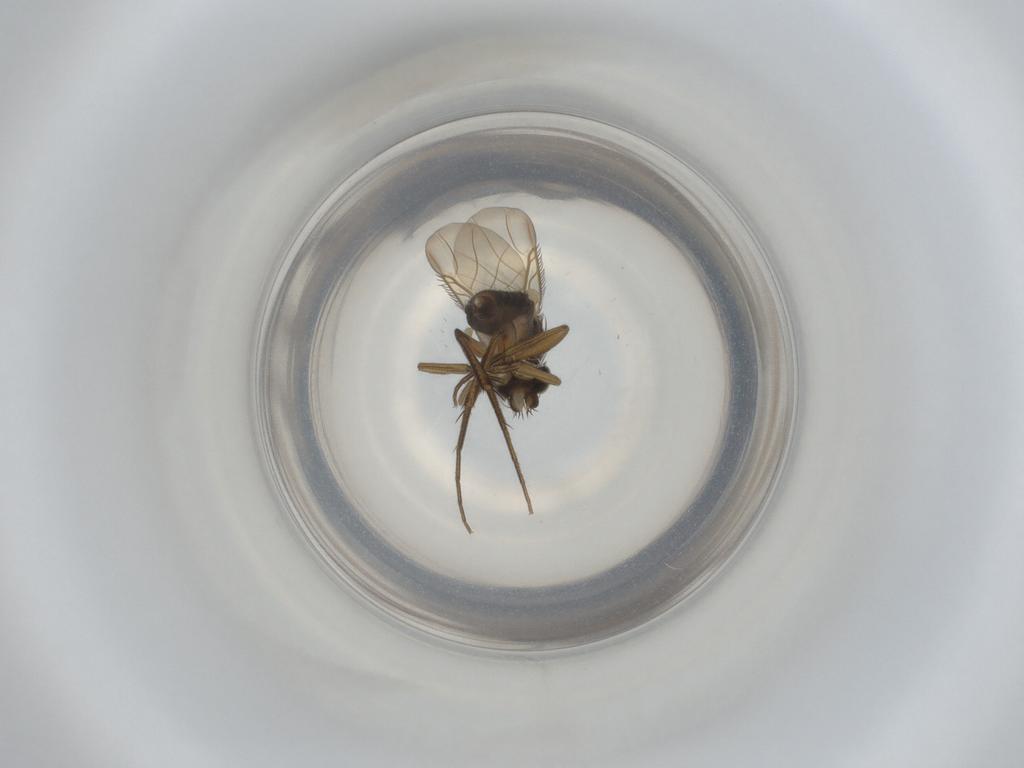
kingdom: Animalia
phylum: Arthropoda
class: Insecta
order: Diptera
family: Phoridae
